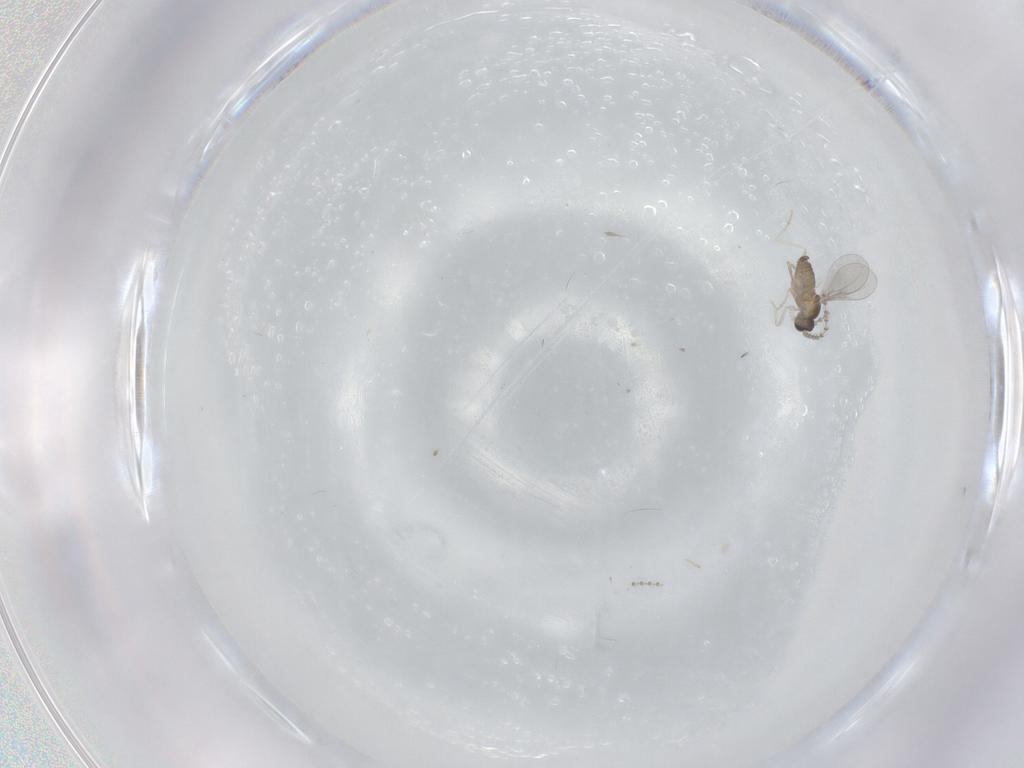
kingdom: Animalia
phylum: Arthropoda
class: Insecta
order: Diptera
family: Cecidomyiidae
